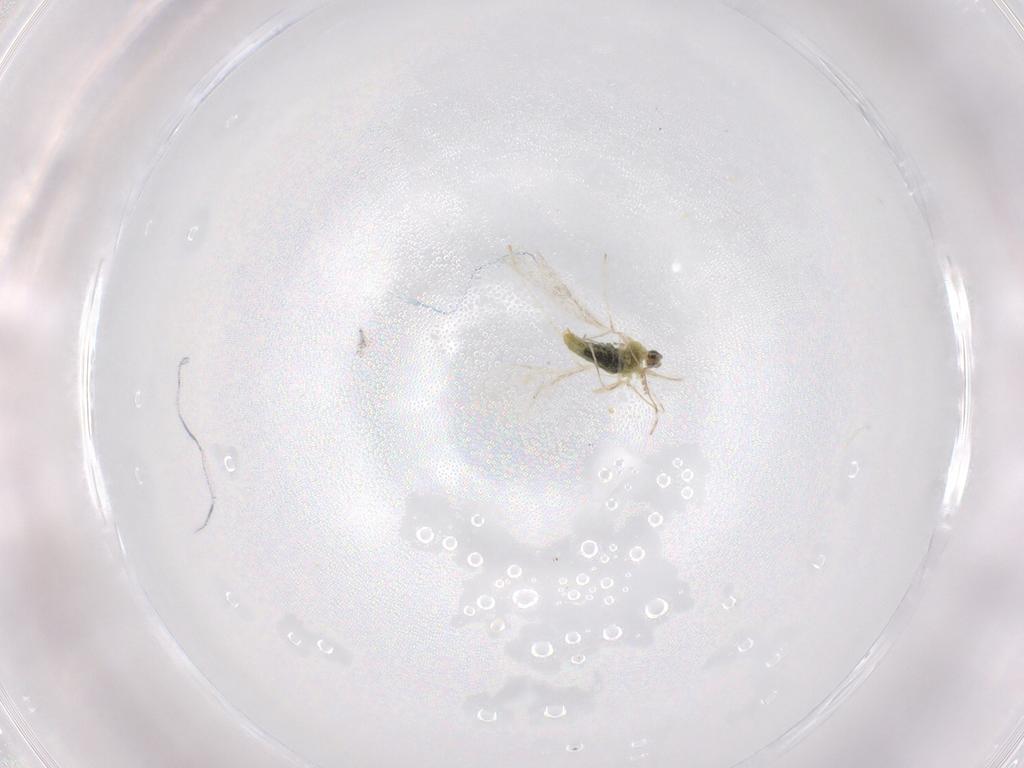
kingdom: Animalia
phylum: Arthropoda
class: Insecta
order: Diptera
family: Cecidomyiidae
